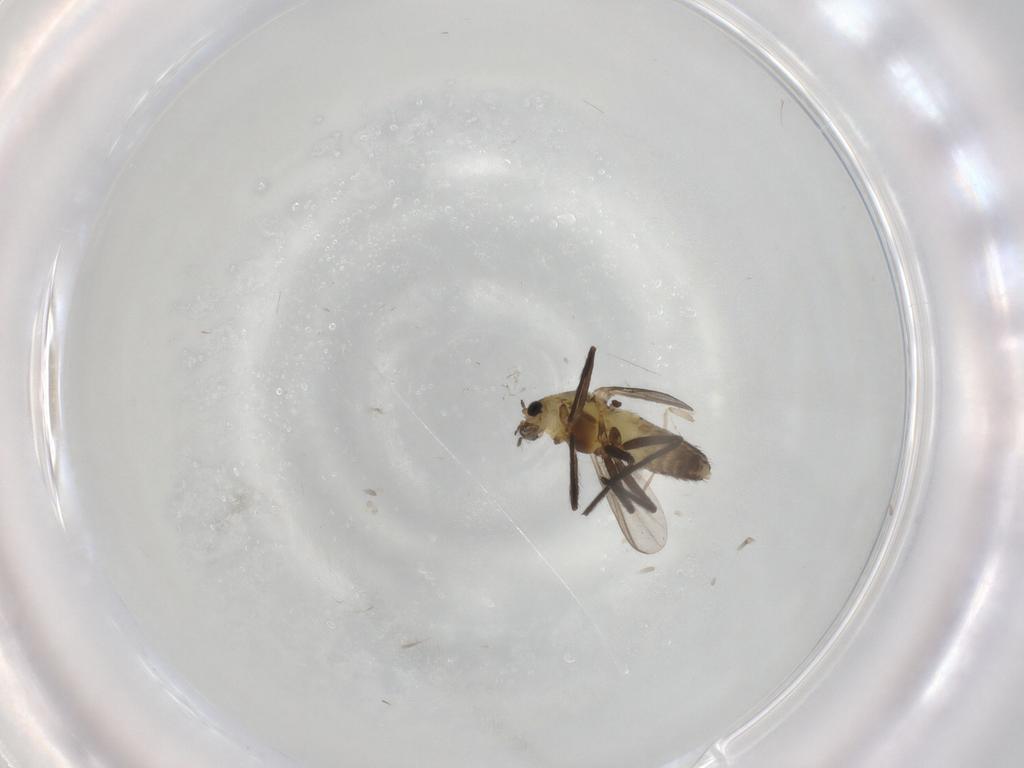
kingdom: Animalia
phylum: Arthropoda
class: Insecta
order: Diptera
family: Chironomidae
